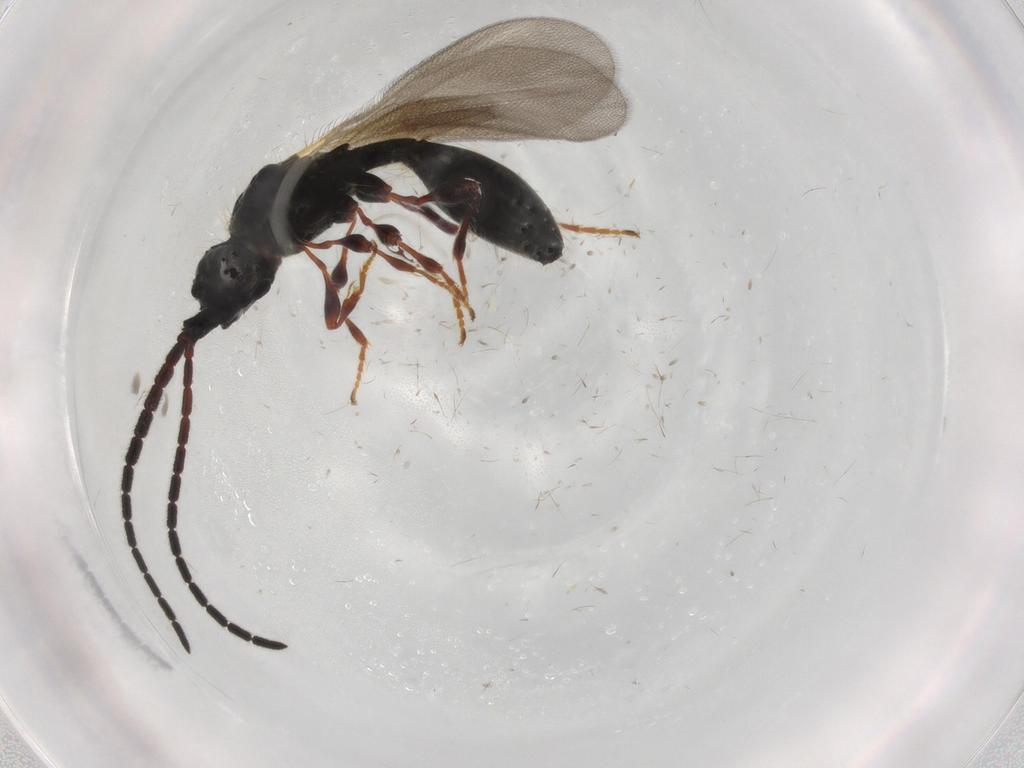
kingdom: Animalia
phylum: Arthropoda
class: Insecta
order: Hymenoptera
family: Diapriidae
